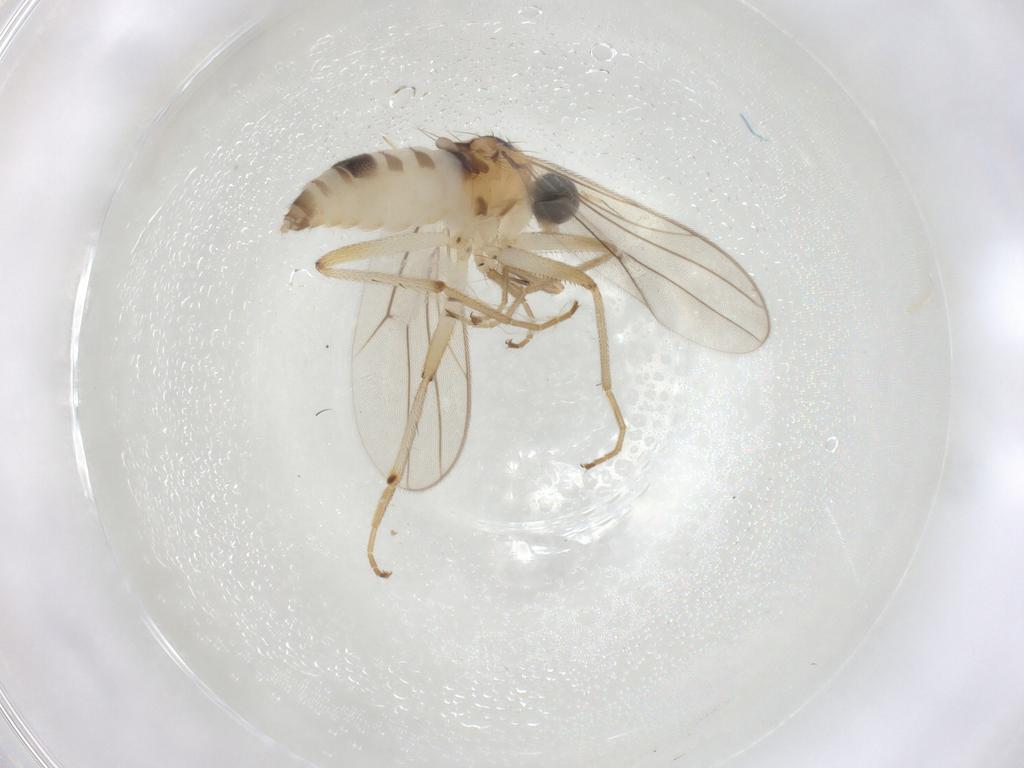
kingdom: Animalia
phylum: Arthropoda
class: Insecta
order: Diptera
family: Hybotidae
